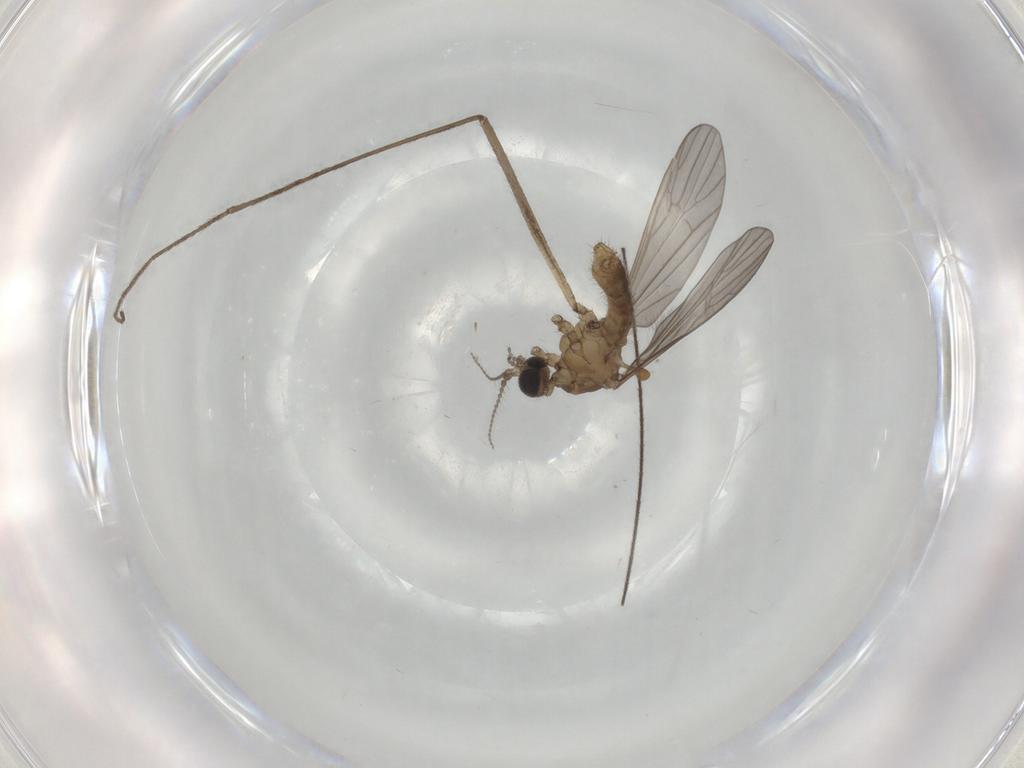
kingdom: Animalia
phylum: Arthropoda
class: Insecta
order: Diptera
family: Limoniidae
